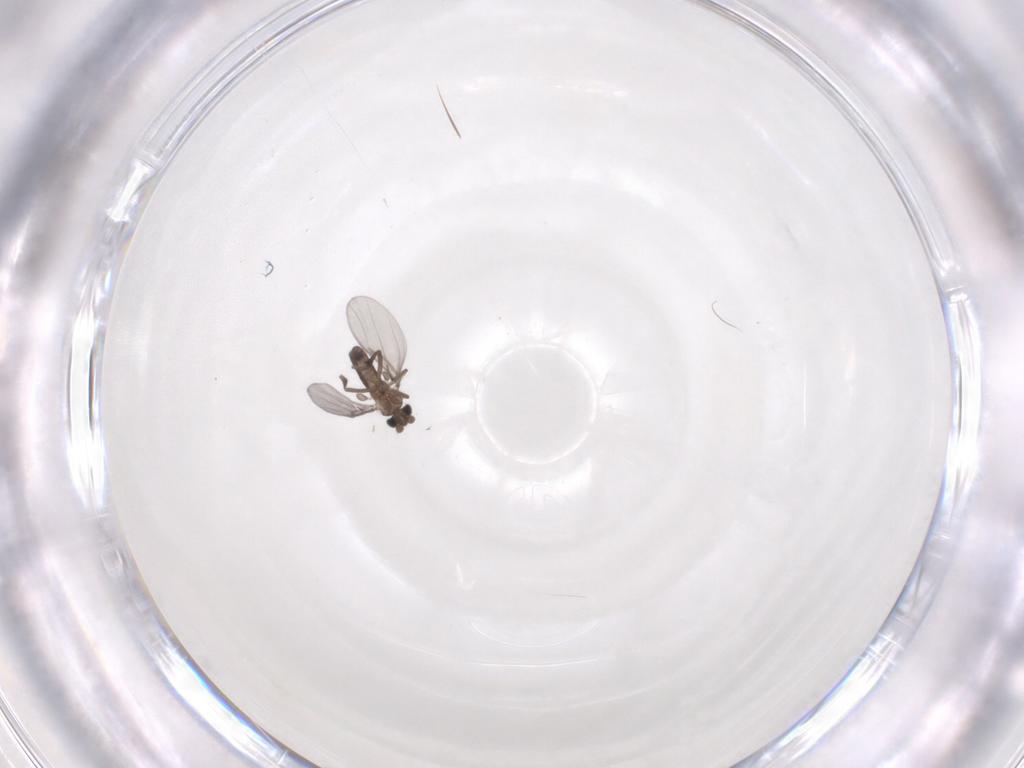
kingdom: Animalia
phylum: Arthropoda
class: Insecta
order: Diptera
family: Phoridae
